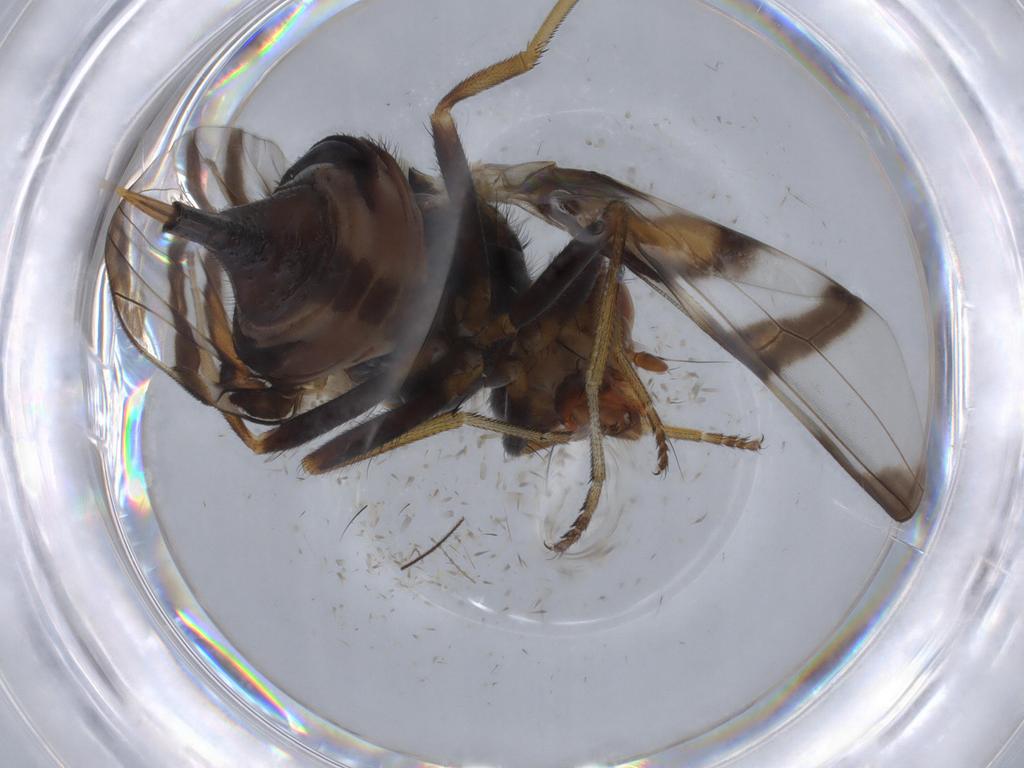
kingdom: Animalia
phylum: Arthropoda
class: Insecta
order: Diptera
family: Ulidiidae
